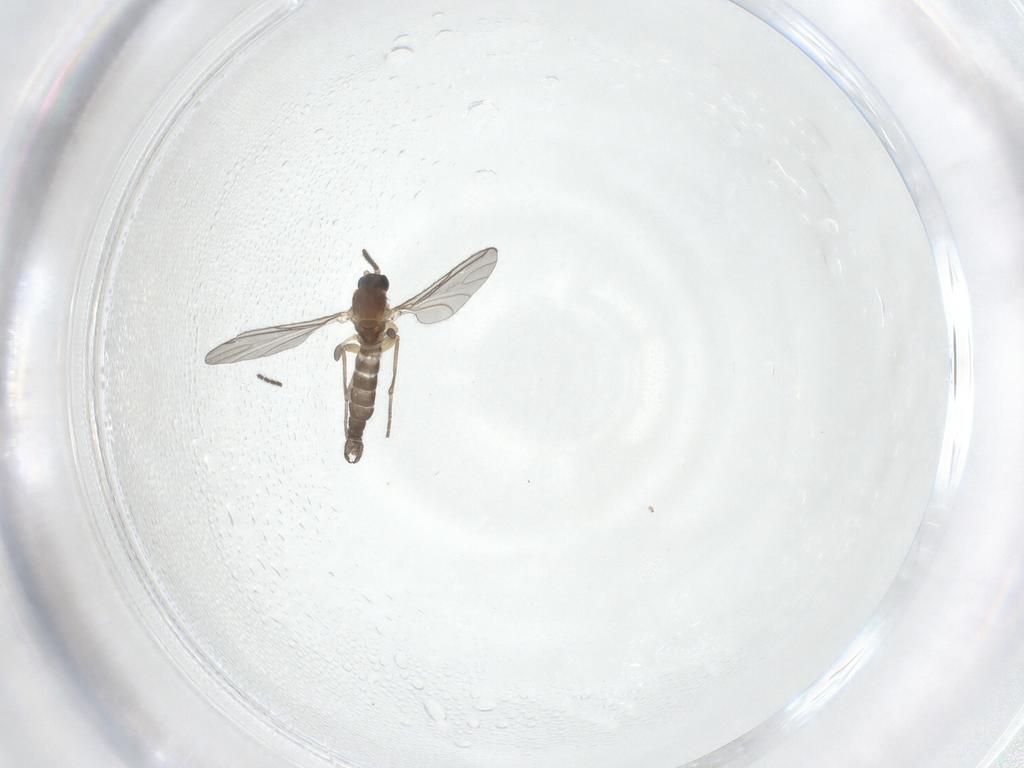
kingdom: Animalia
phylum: Arthropoda
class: Insecta
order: Diptera
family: Sciaridae
